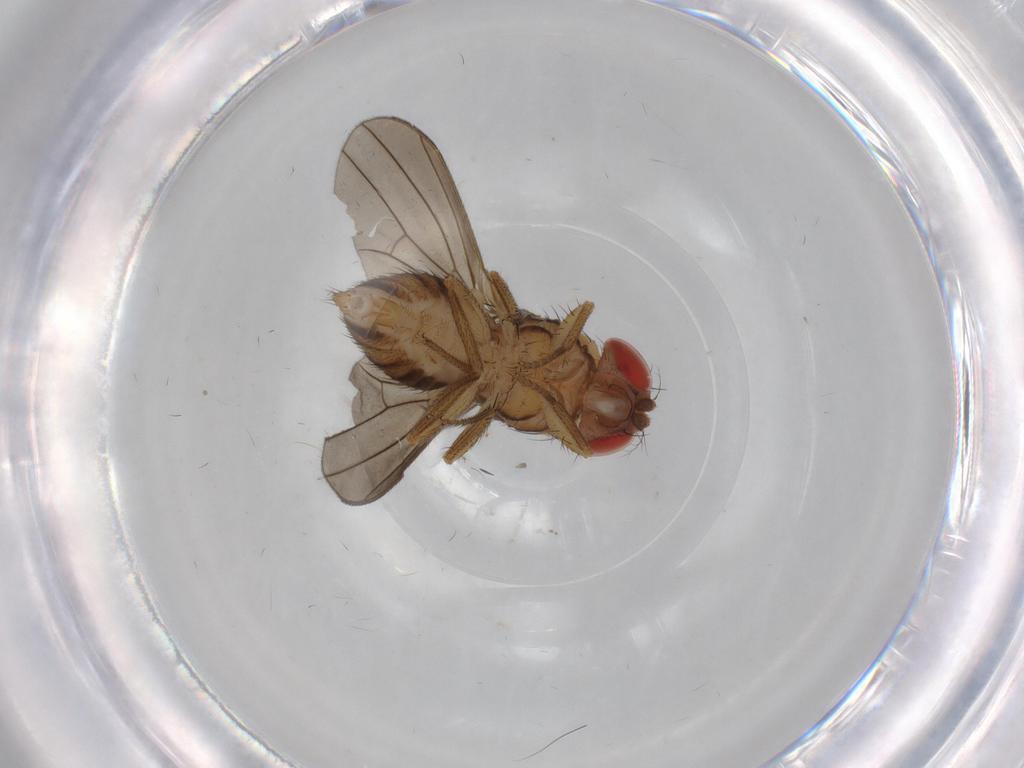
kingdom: Animalia
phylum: Arthropoda
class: Insecta
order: Diptera
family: Drosophilidae
